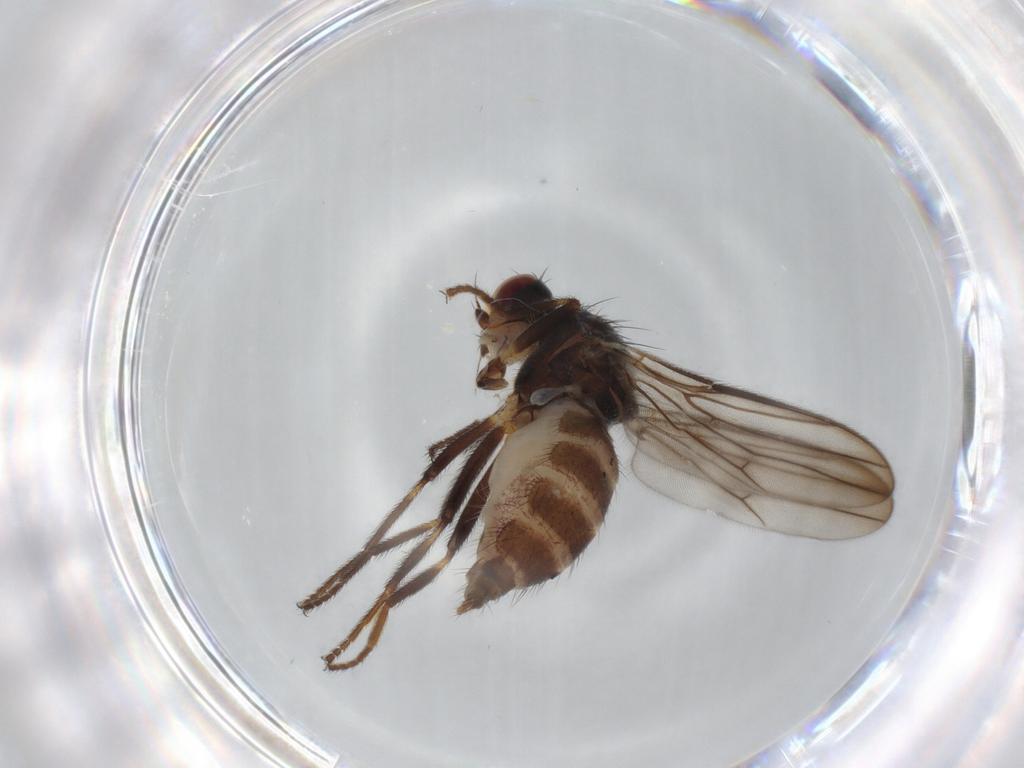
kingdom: Animalia
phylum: Arthropoda
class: Insecta
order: Diptera
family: Chloropidae
